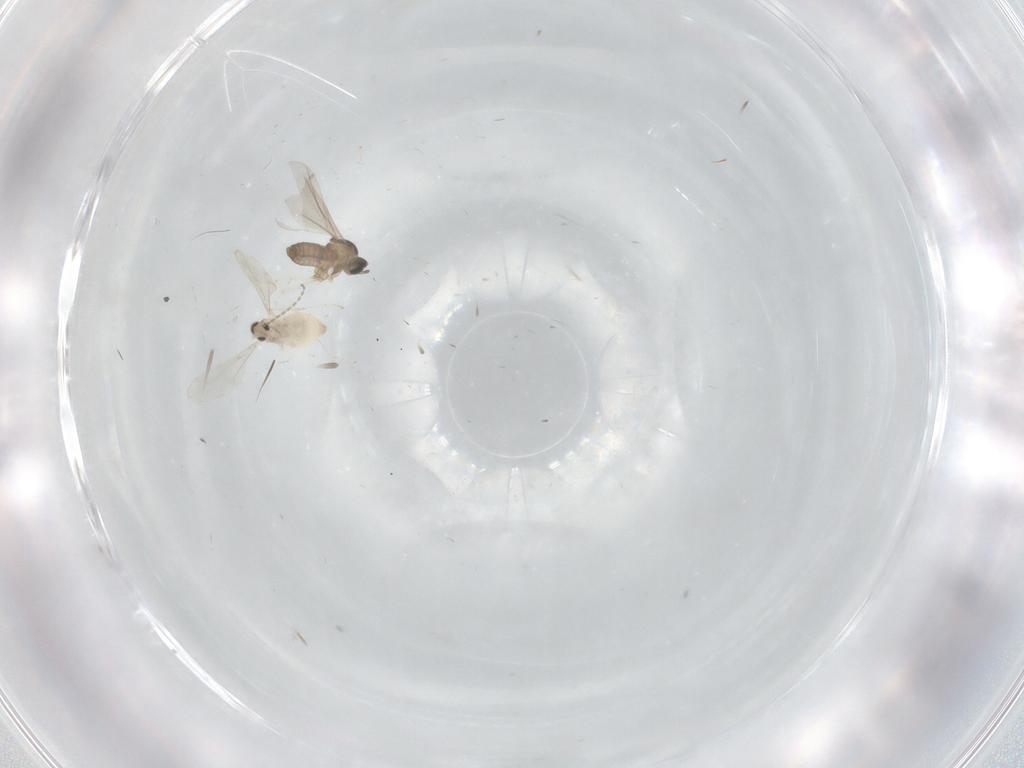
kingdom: Animalia
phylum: Arthropoda
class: Insecta
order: Diptera
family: Cecidomyiidae
